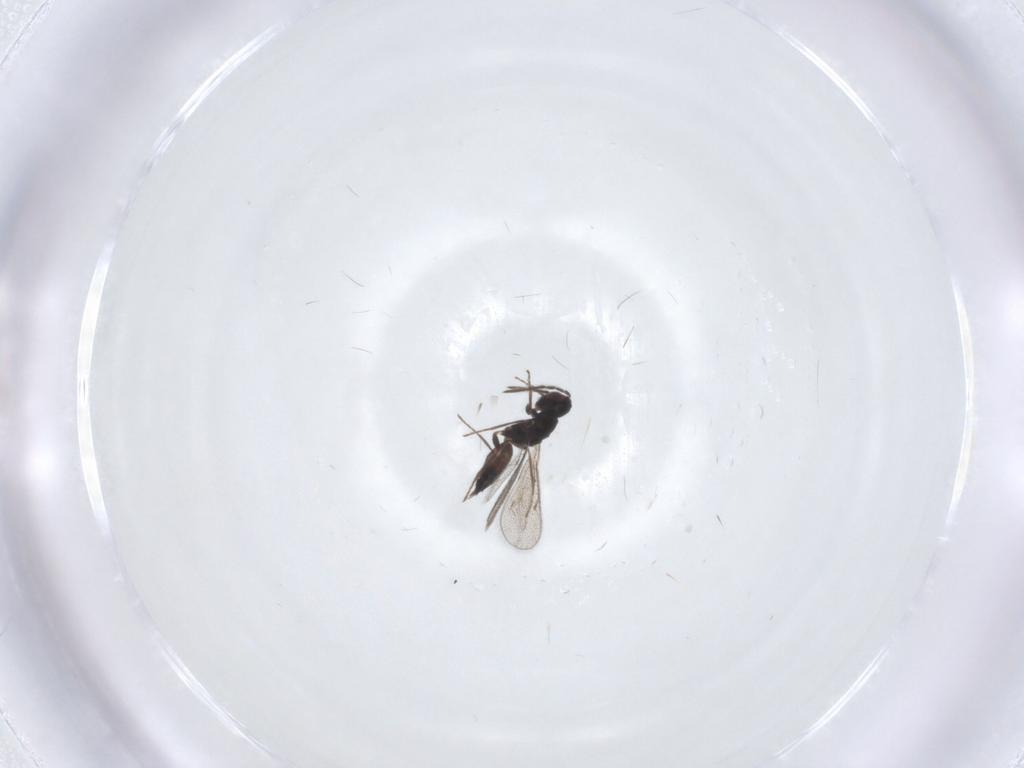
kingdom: Animalia
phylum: Arthropoda
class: Insecta
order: Hymenoptera
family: Eulophidae
